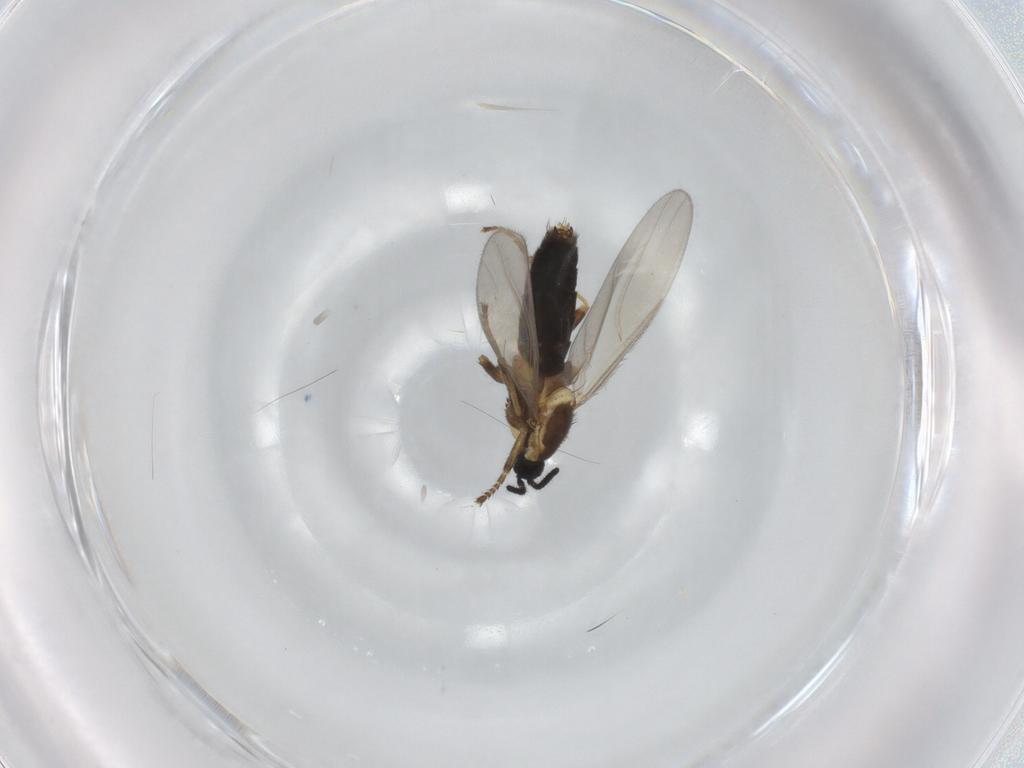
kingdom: Animalia
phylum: Arthropoda
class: Insecta
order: Diptera
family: Scatopsidae
